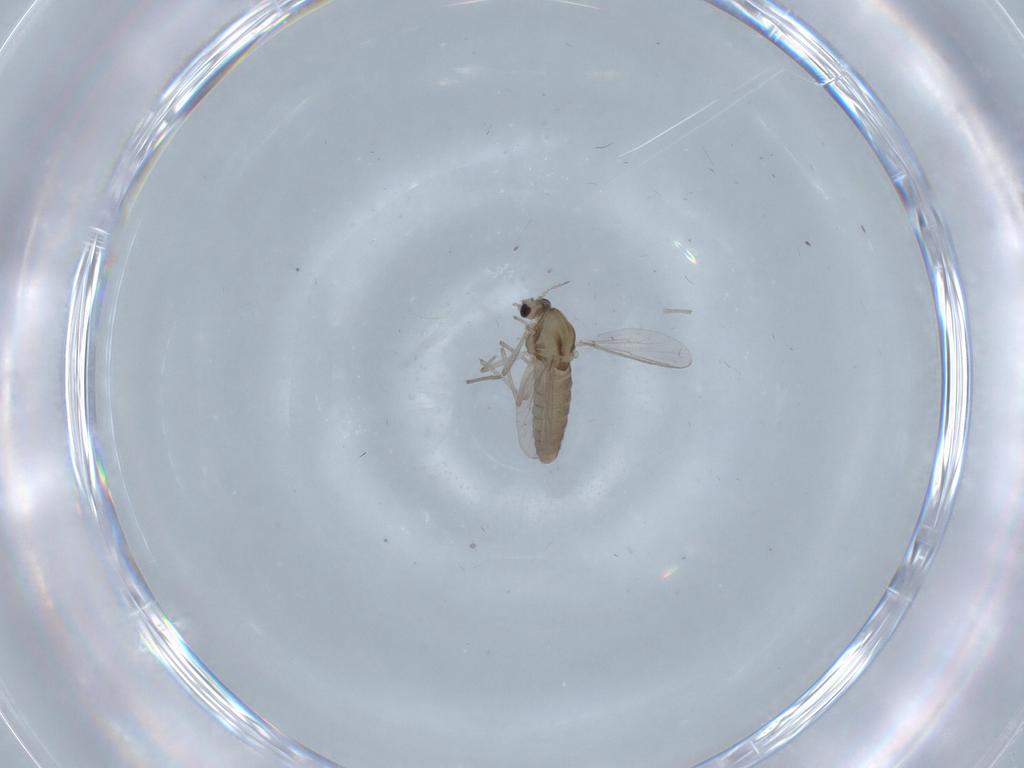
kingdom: Animalia
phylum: Arthropoda
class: Insecta
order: Diptera
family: Chironomidae
